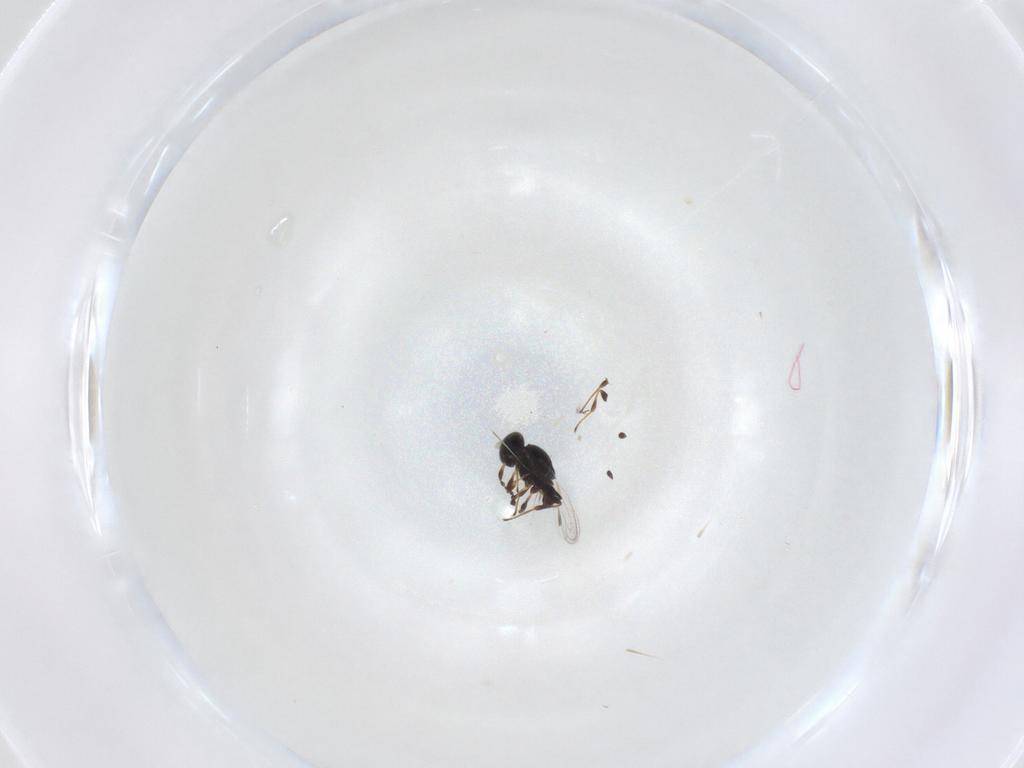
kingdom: Animalia
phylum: Arthropoda
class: Insecta
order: Hymenoptera
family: Platygastridae
